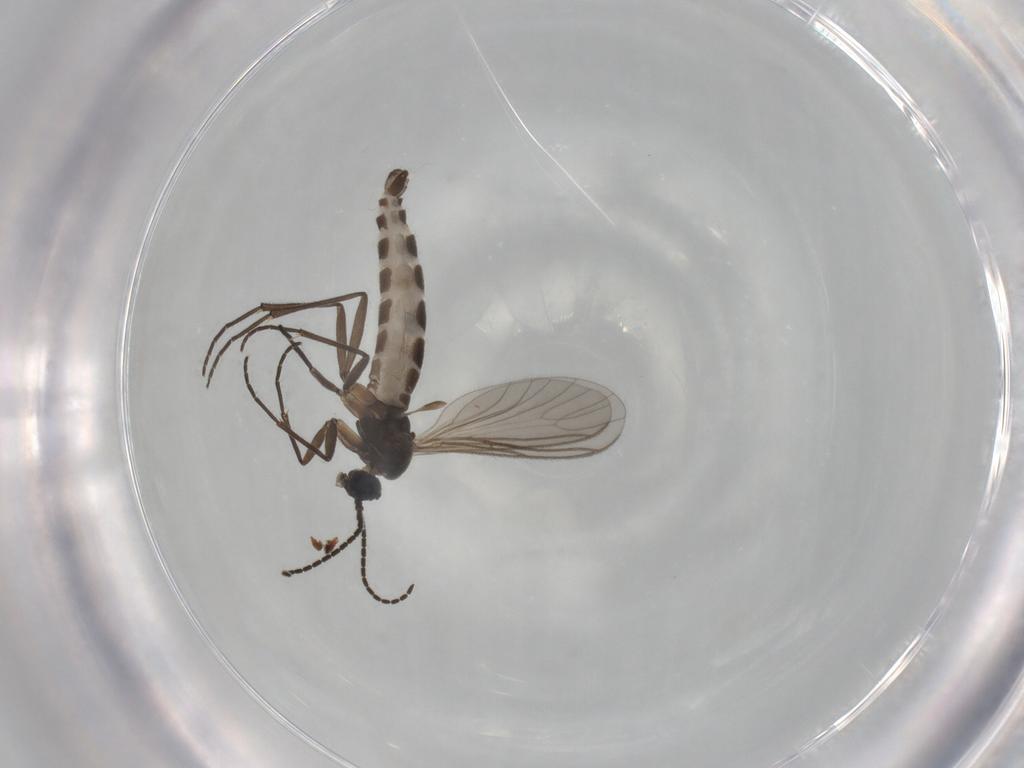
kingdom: Animalia
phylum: Arthropoda
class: Insecta
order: Diptera
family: Sciaridae
